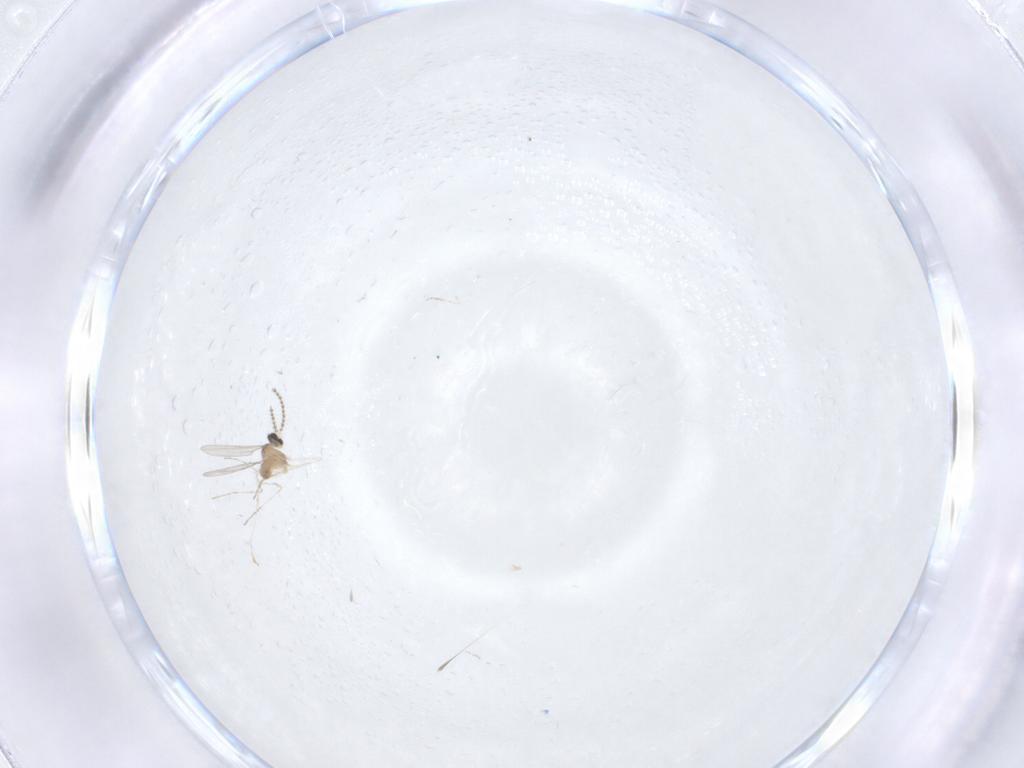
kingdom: Animalia
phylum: Arthropoda
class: Insecta
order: Diptera
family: Cecidomyiidae
